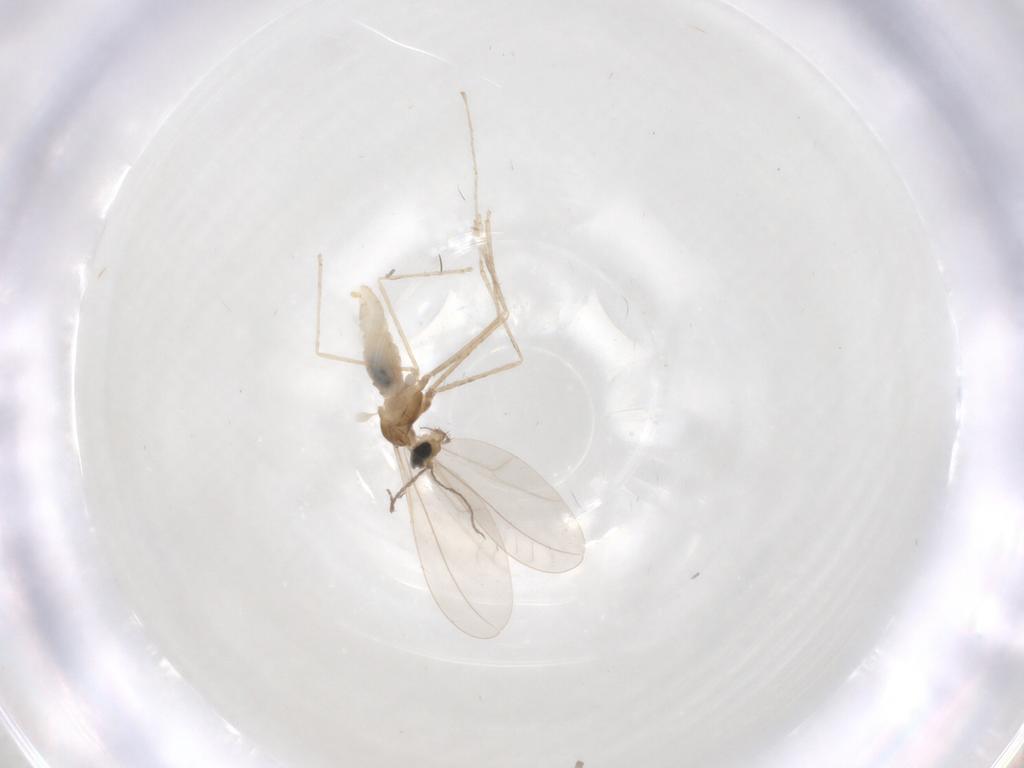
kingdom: Animalia
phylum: Arthropoda
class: Insecta
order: Diptera
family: Cecidomyiidae
